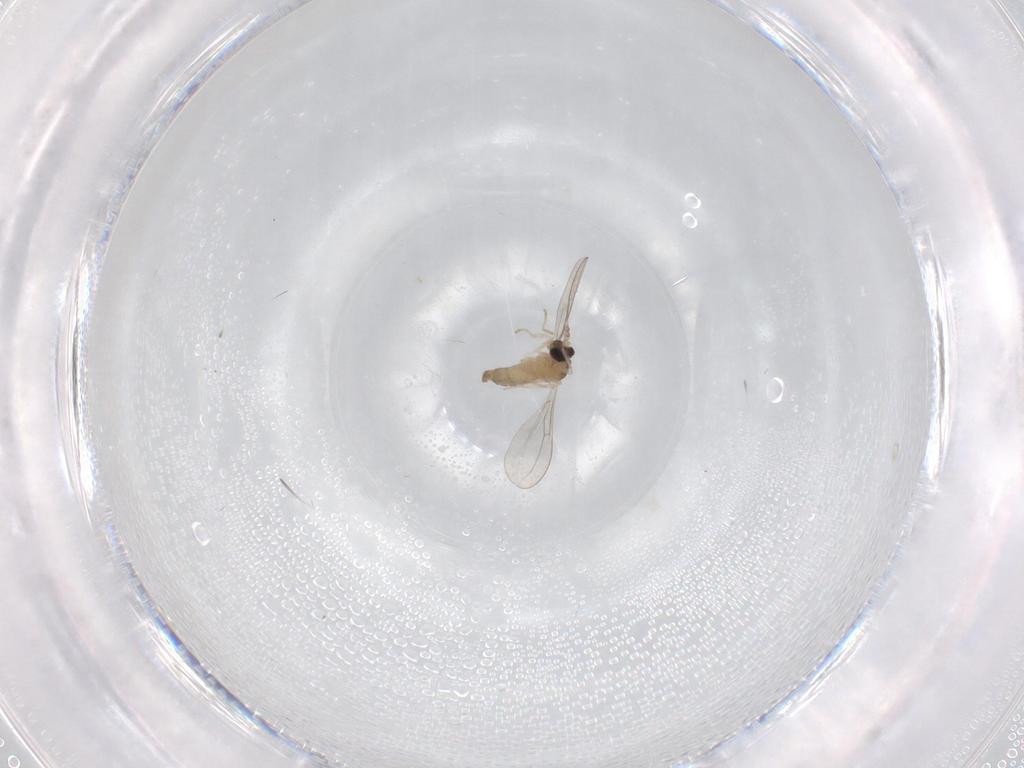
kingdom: Animalia
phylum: Arthropoda
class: Insecta
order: Diptera
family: Cecidomyiidae
